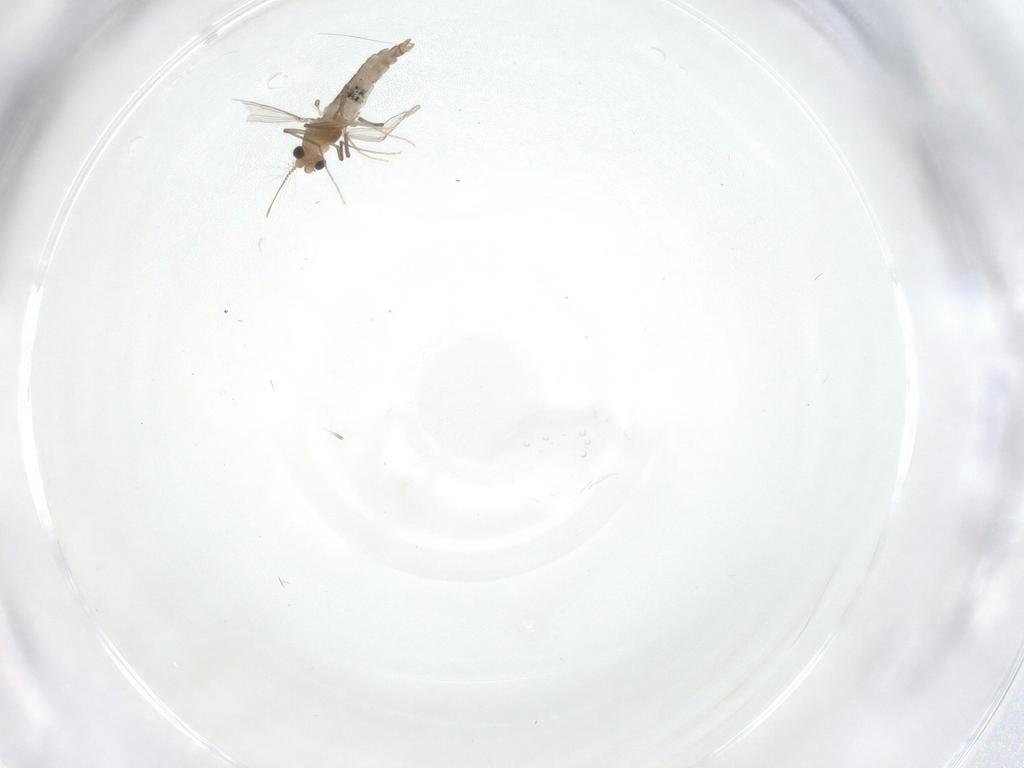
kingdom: Animalia
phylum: Arthropoda
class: Insecta
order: Diptera
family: Chironomidae
